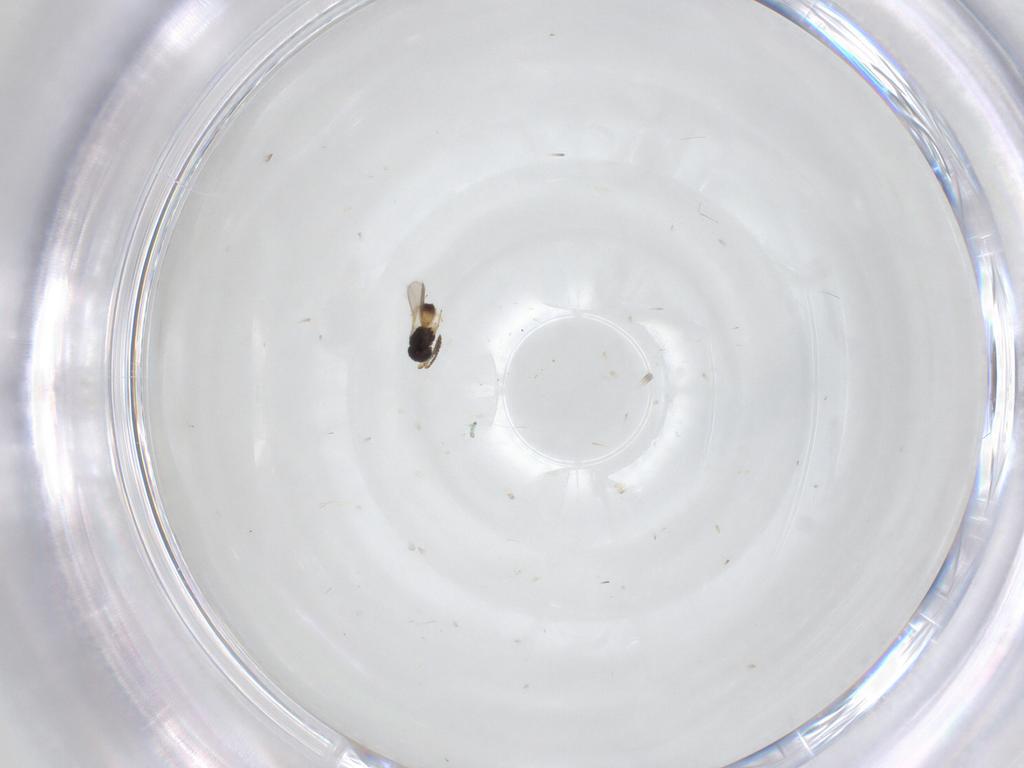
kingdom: Animalia
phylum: Arthropoda
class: Insecta
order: Hymenoptera
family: Scelionidae
